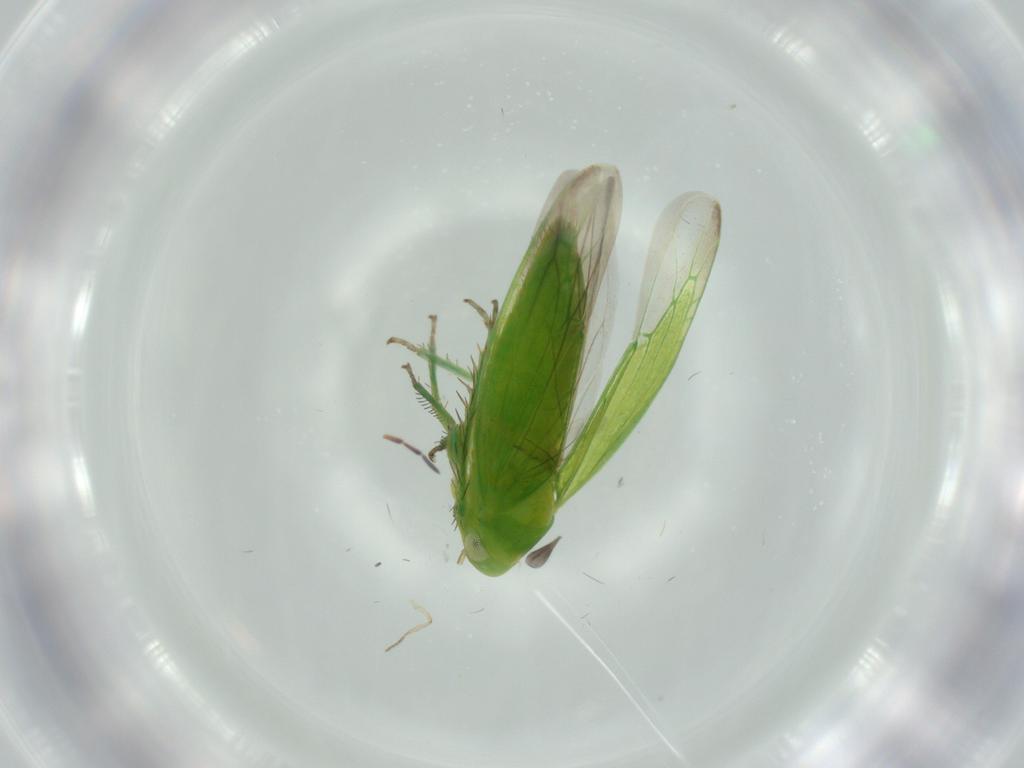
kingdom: Animalia
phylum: Arthropoda
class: Insecta
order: Hemiptera
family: Cicadellidae
